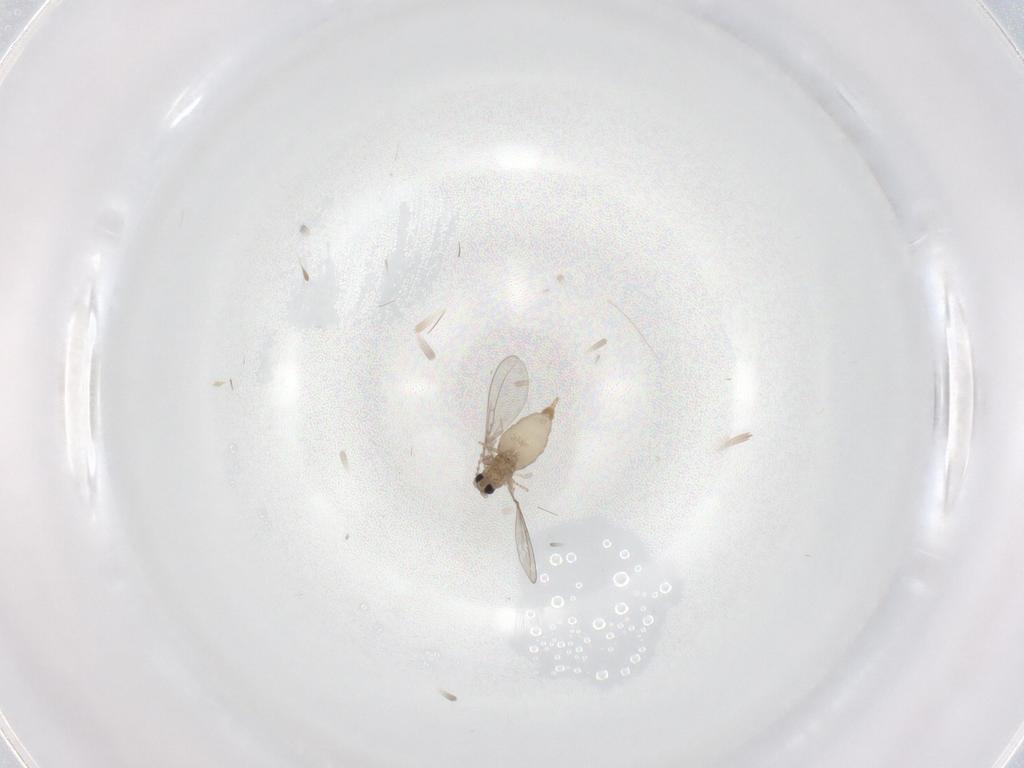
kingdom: Animalia
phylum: Arthropoda
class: Insecta
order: Diptera
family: Cecidomyiidae
